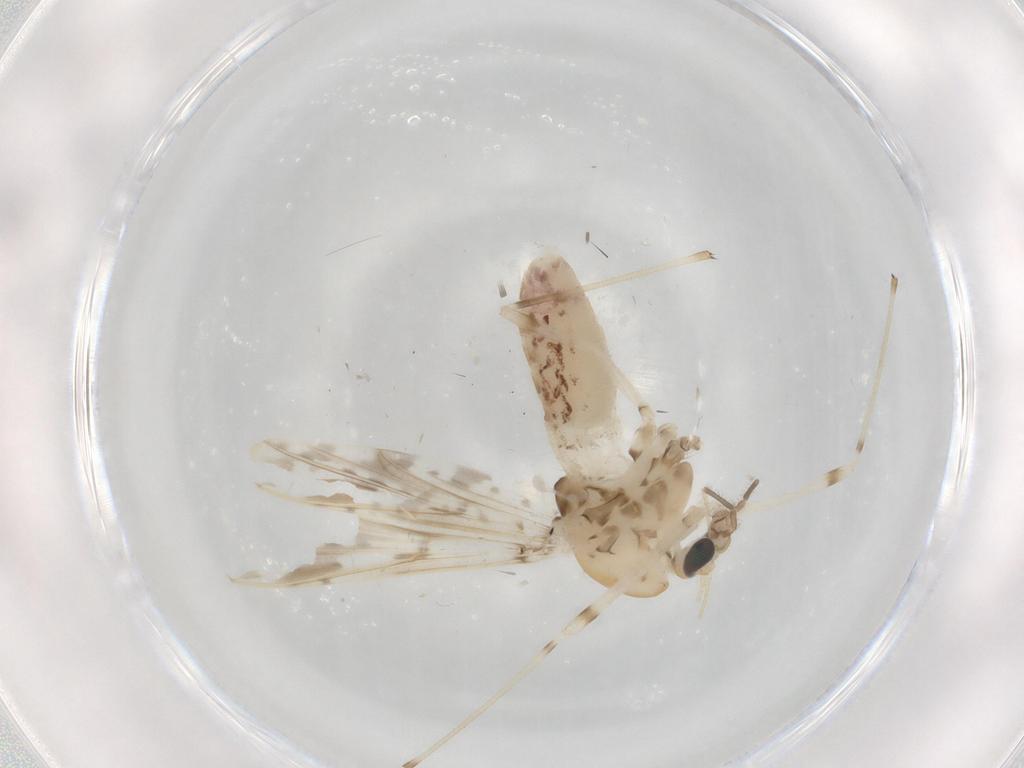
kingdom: Animalia
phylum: Arthropoda
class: Insecta
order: Diptera
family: Chironomidae
